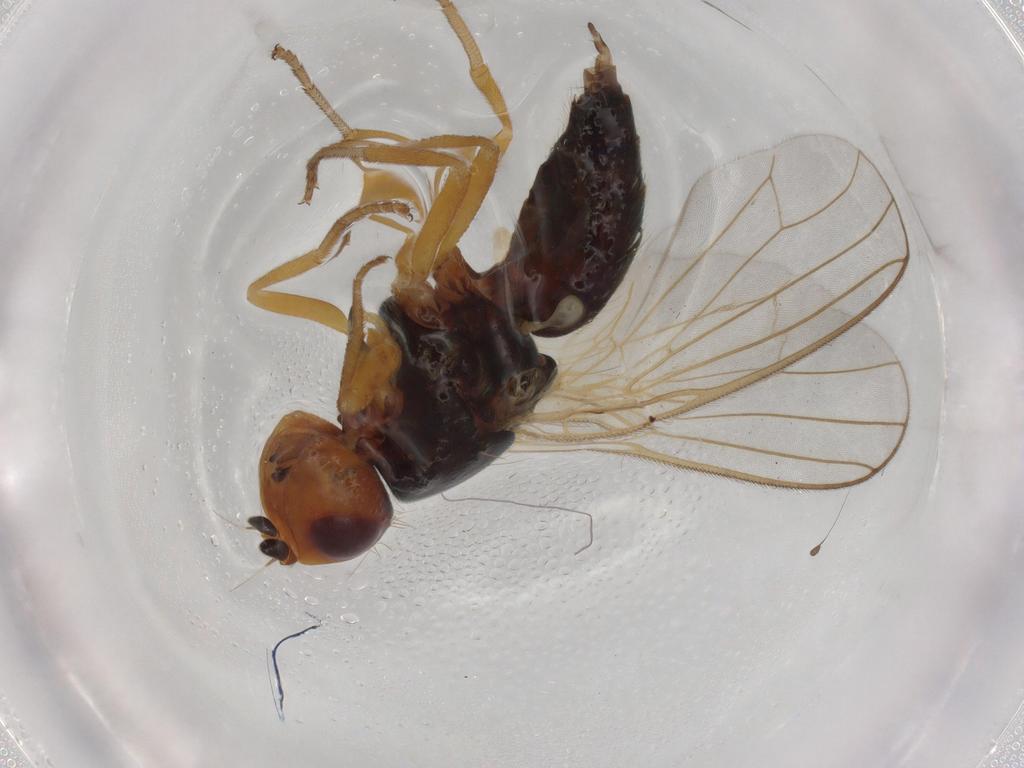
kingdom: Animalia
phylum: Arthropoda
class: Insecta
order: Diptera
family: Hybotidae
